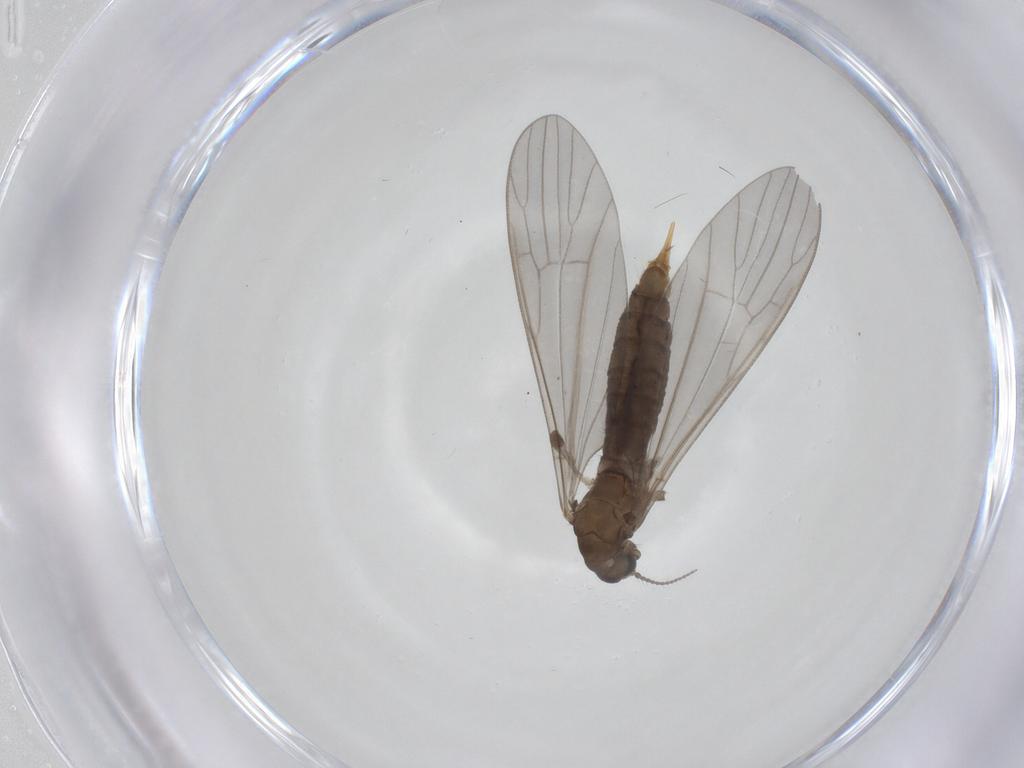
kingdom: Animalia
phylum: Arthropoda
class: Insecta
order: Diptera
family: Limoniidae
